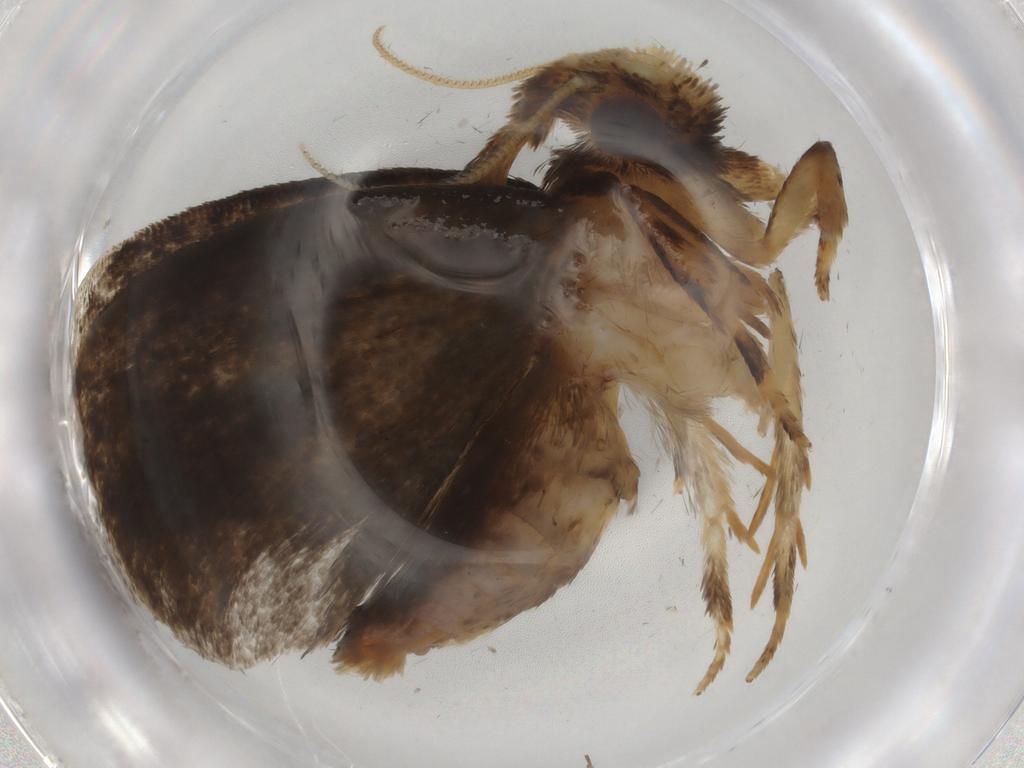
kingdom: Animalia
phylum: Arthropoda
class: Insecta
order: Lepidoptera
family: Tineidae
